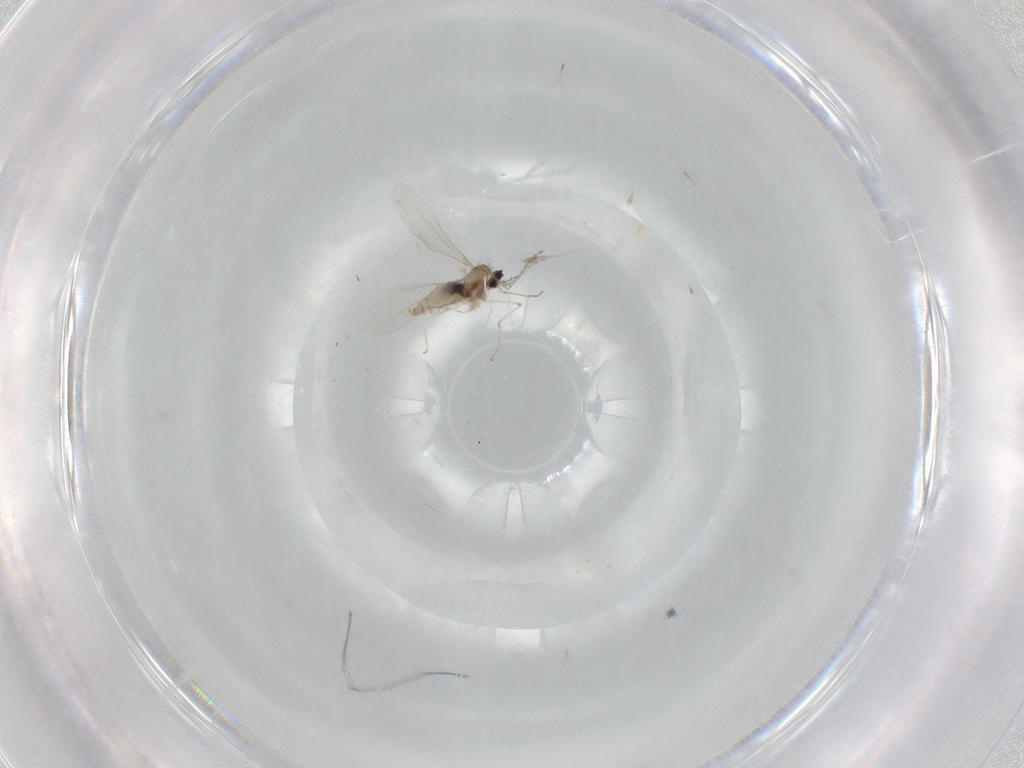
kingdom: Animalia
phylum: Arthropoda
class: Insecta
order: Diptera
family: Cecidomyiidae
